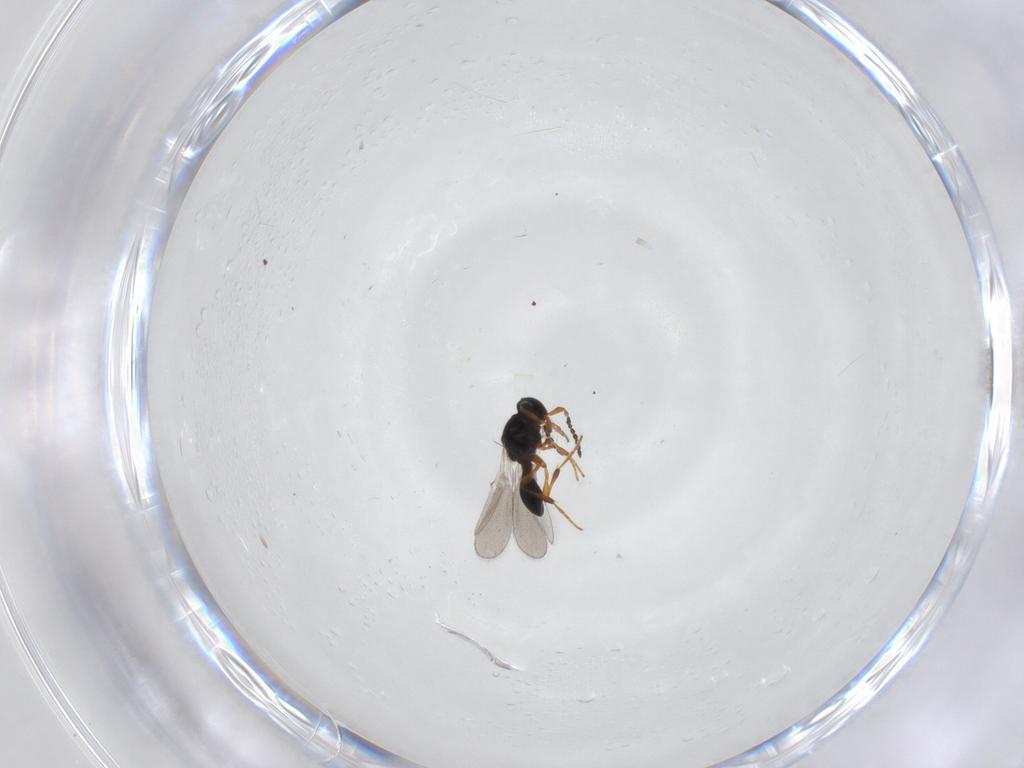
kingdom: Animalia
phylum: Arthropoda
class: Insecta
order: Hymenoptera
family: Platygastridae
